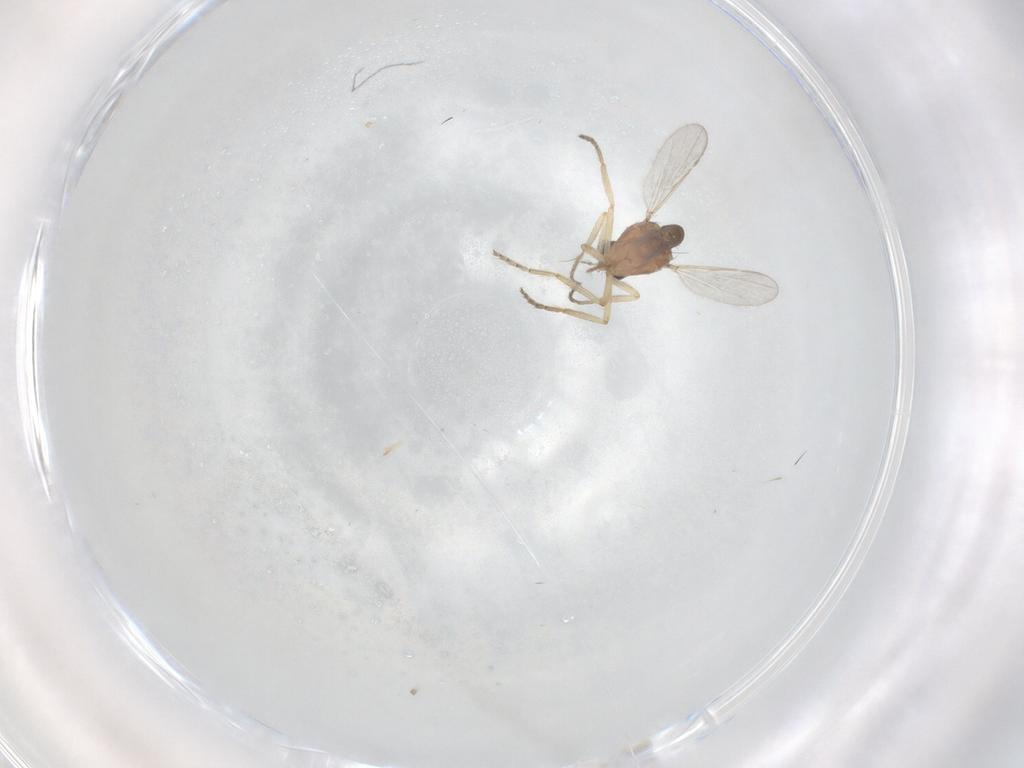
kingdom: Animalia
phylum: Arthropoda
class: Insecta
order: Diptera
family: Ceratopogonidae
